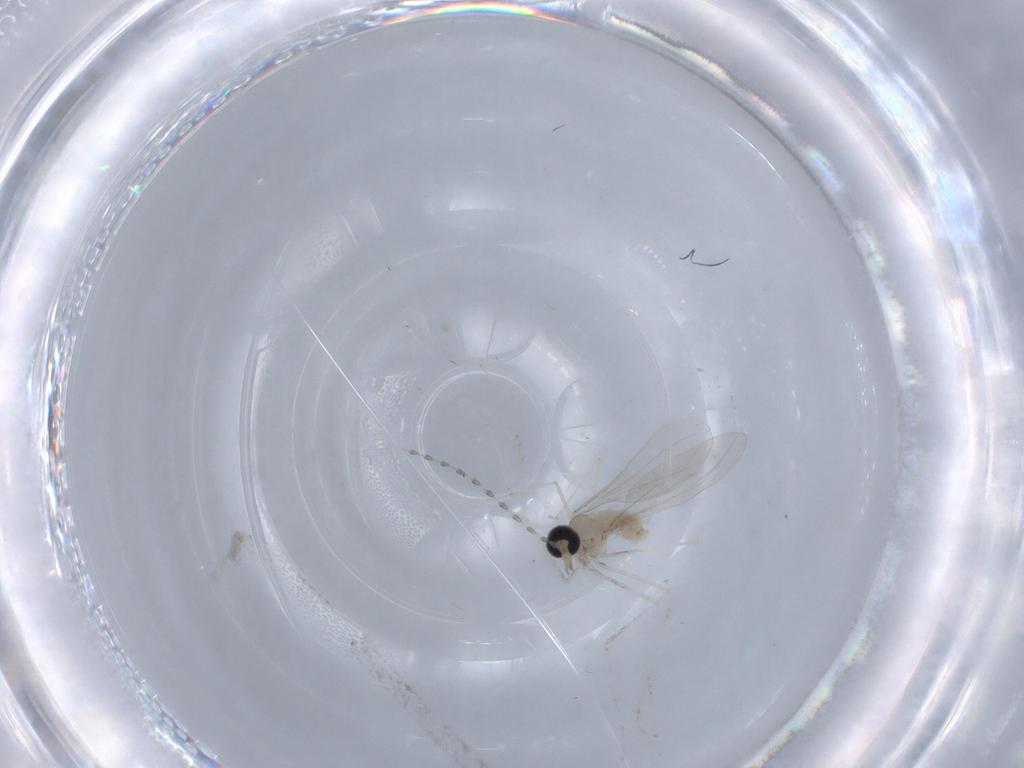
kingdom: Animalia
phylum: Arthropoda
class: Insecta
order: Diptera
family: Cecidomyiidae
